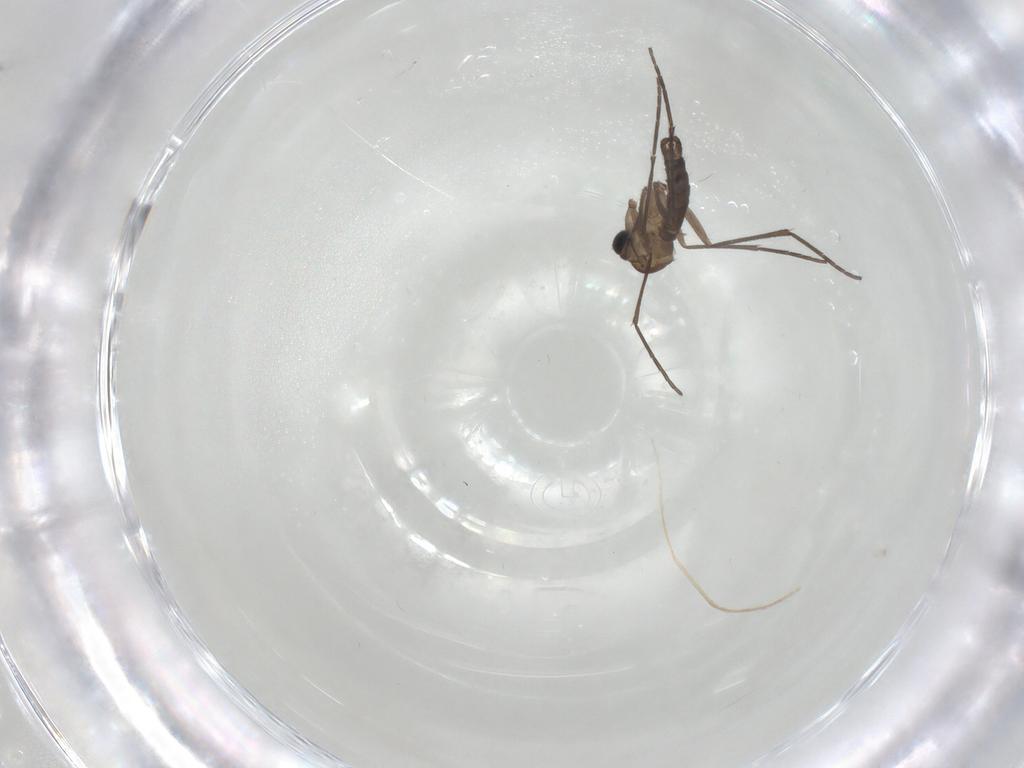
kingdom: Animalia
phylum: Arthropoda
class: Insecta
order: Diptera
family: Sciaridae
